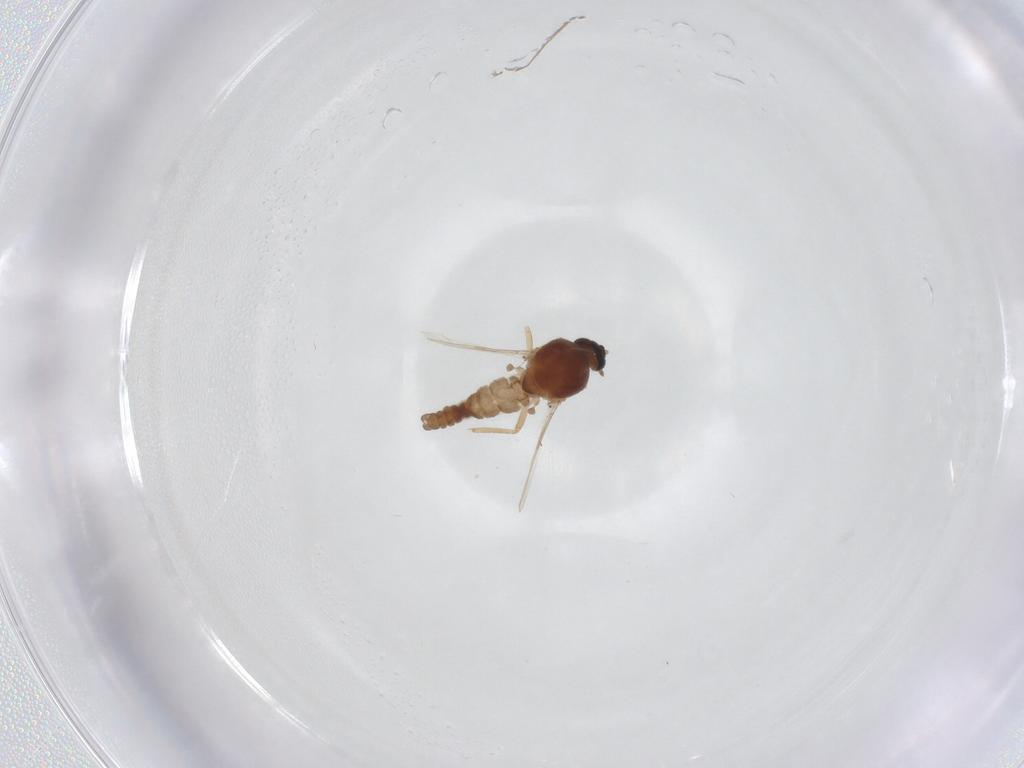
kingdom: Animalia
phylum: Arthropoda
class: Insecta
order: Diptera
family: Ceratopogonidae
